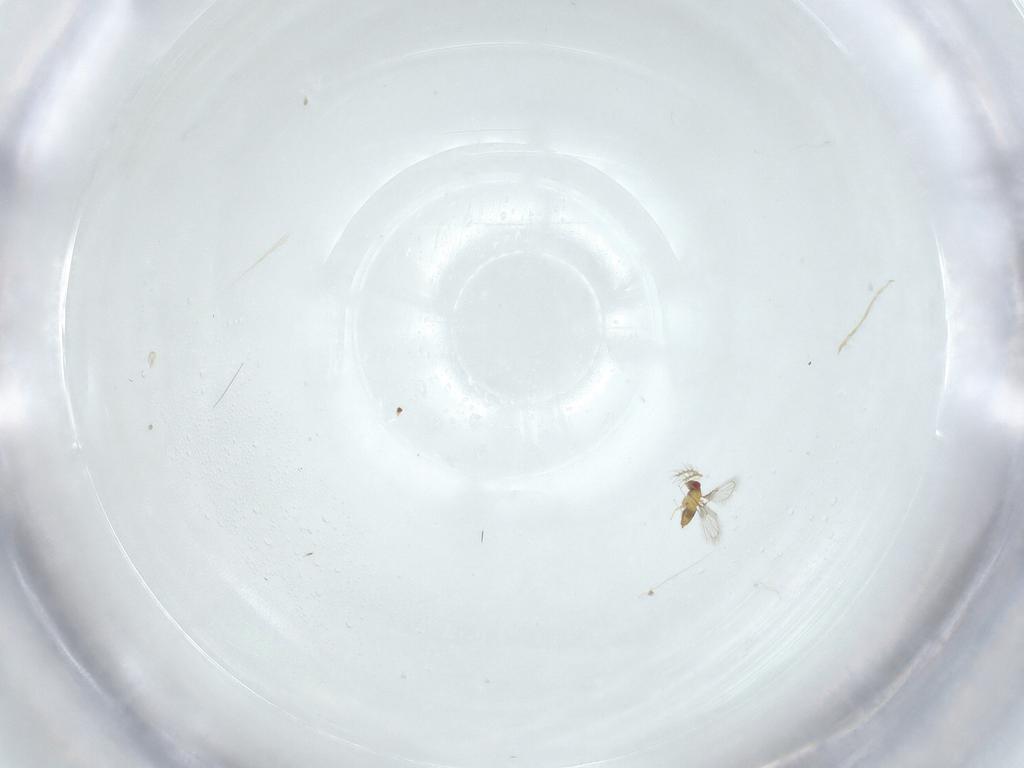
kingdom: Animalia
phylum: Arthropoda
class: Insecta
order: Hymenoptera
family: Trichogrammatidae
